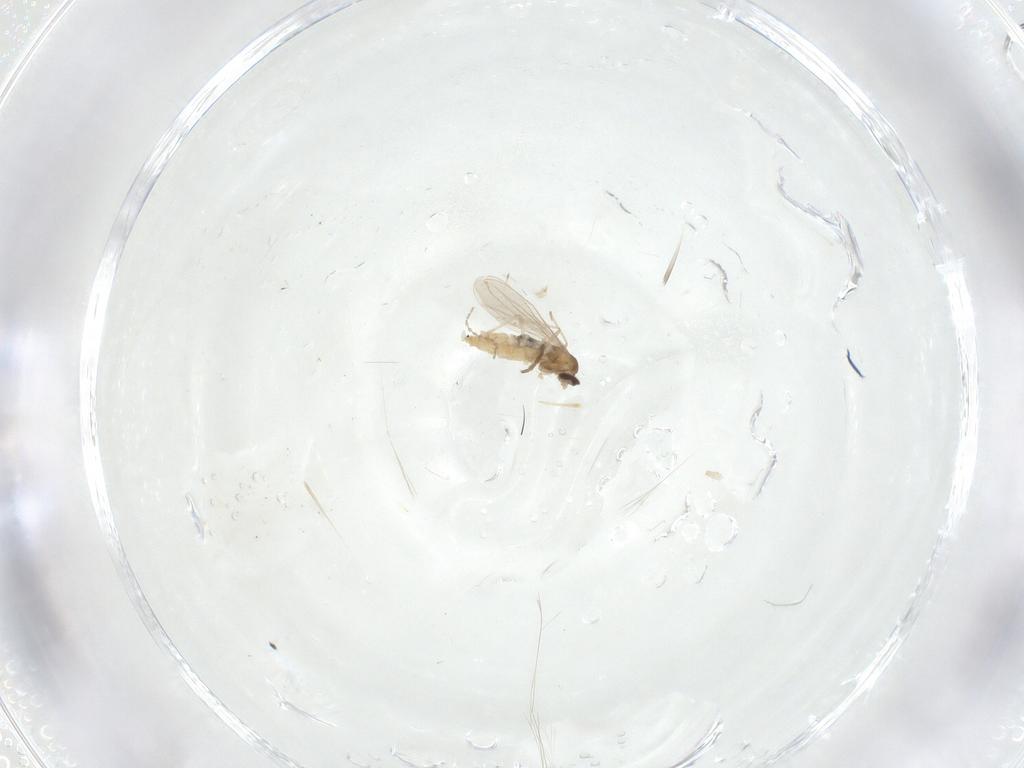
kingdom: Animalia
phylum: Arthropoda
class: Insecta
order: Diptera
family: Cecidomyiidae
